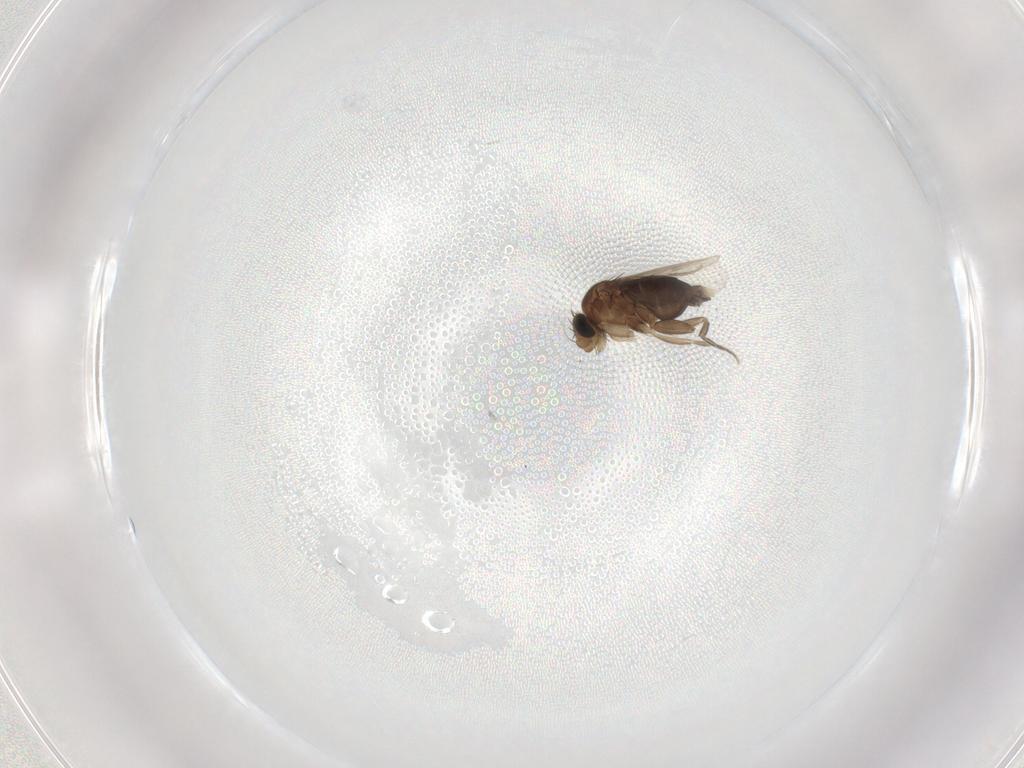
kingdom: Animalia
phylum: Arthropoda
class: Insecta
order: Diptera
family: Phoridae
